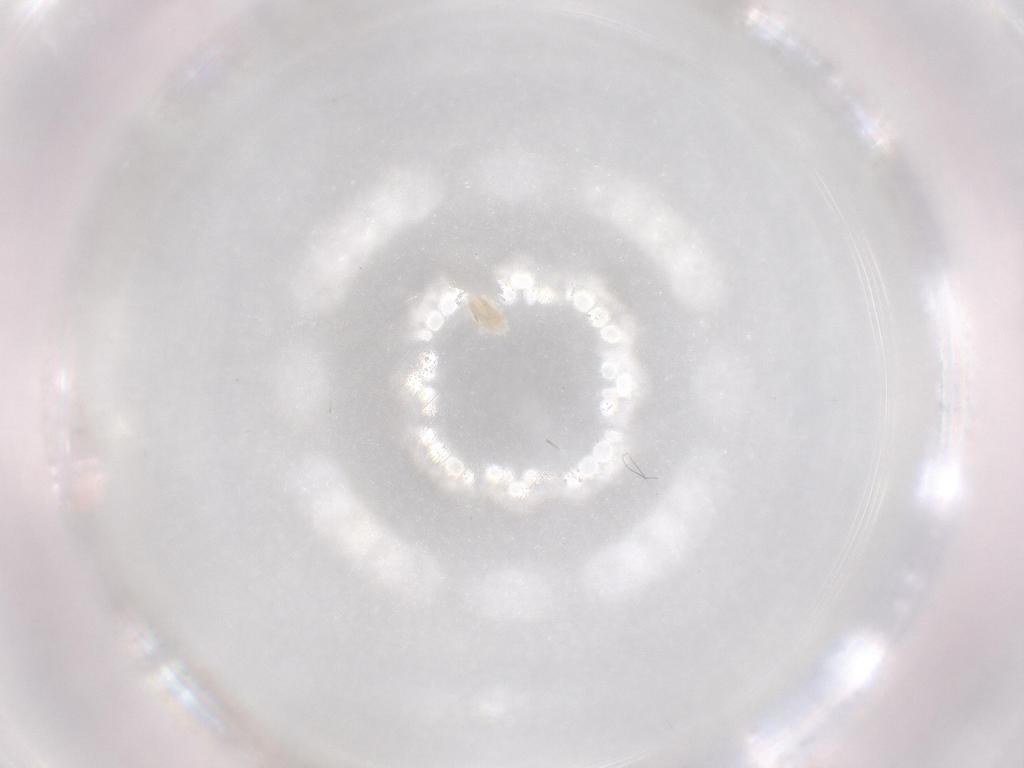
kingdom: Animalia
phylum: Arthropoda
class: Arachnida
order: Trombidiformes
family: Eupodidae
